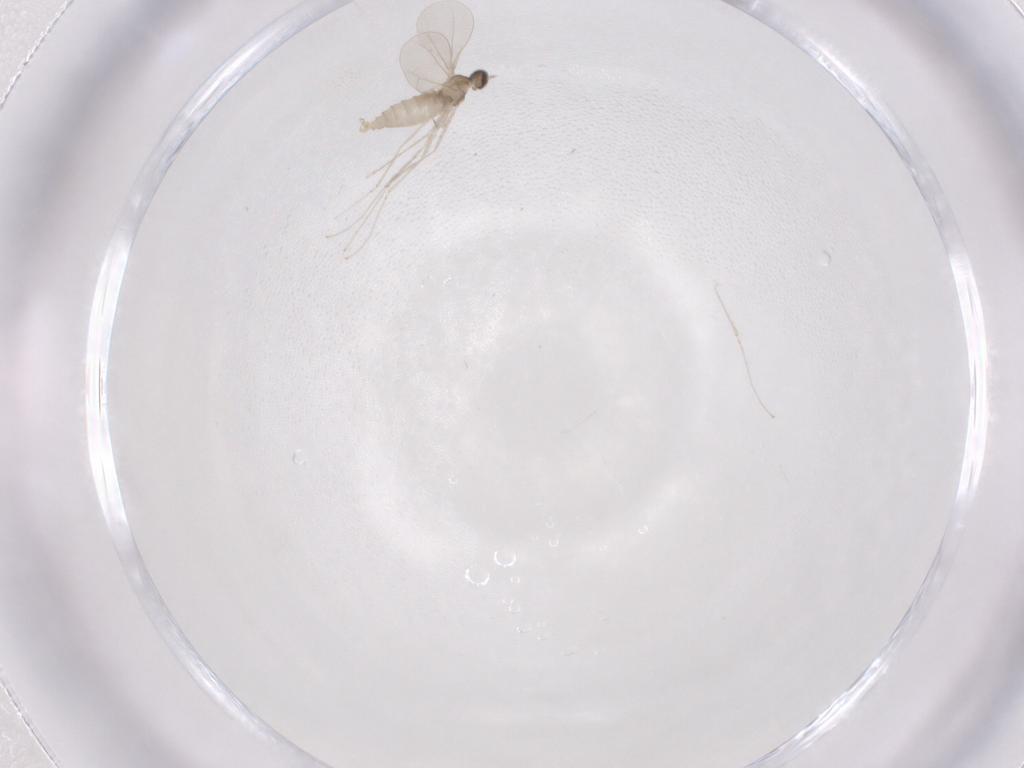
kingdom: Animalia
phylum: Arthropoda
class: Insecta
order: Diptera
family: Cecidomyiidae
